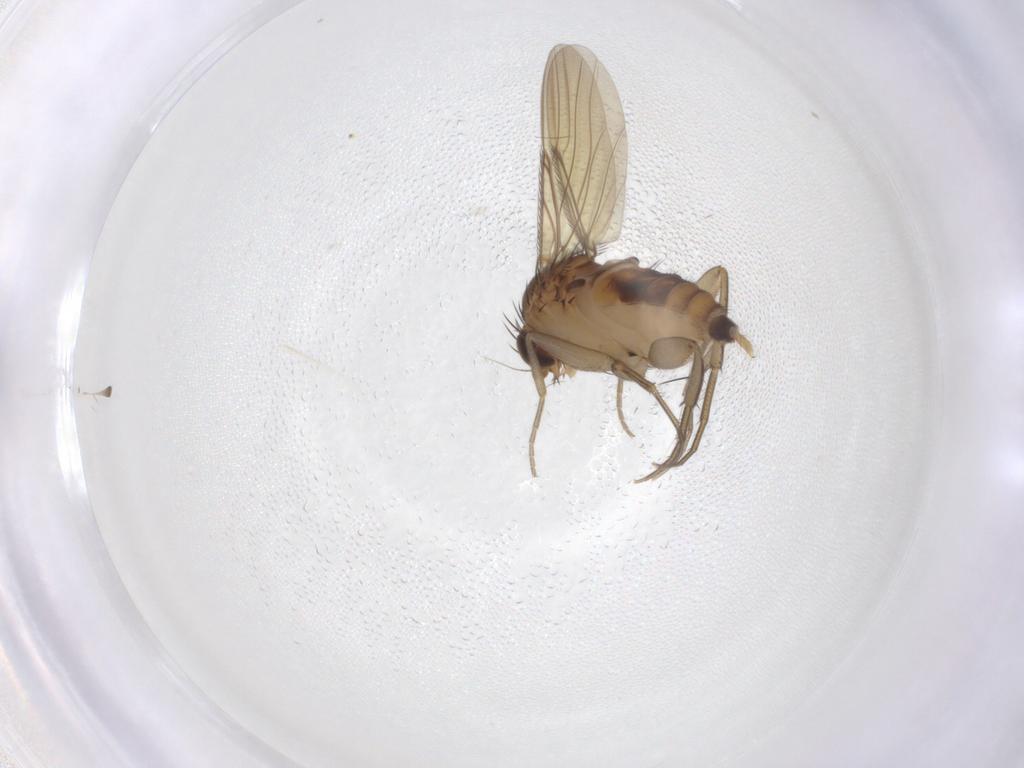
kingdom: Animalia
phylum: Arthropoda
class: Insecta
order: Diptera
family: Phoridae
